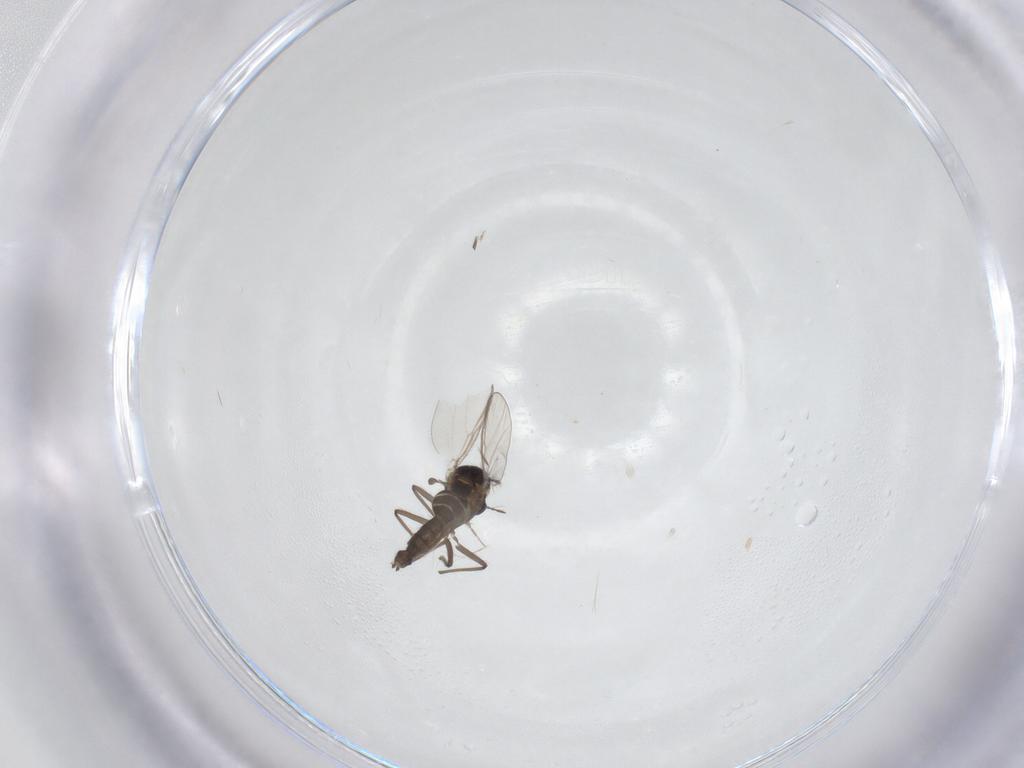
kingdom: Animalia
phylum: Arthropoda
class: Insecta
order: Diptera
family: Chironomidae
